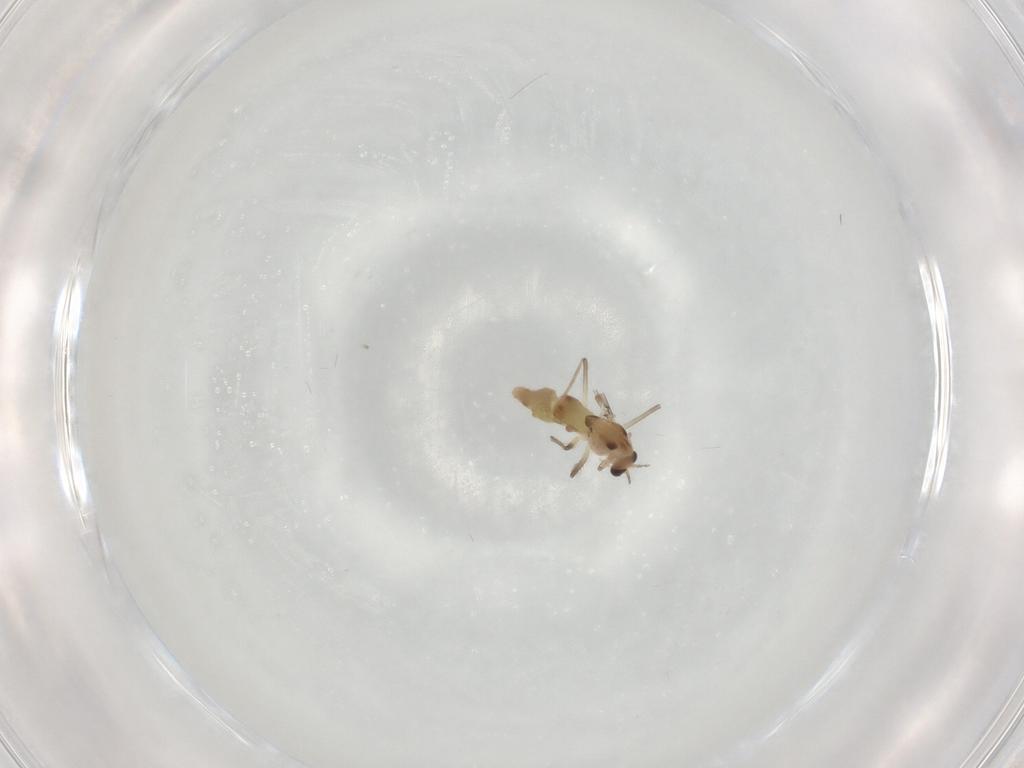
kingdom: Animalia
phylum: Arthropoda
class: Insecta
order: Diptera
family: Chironomidae
